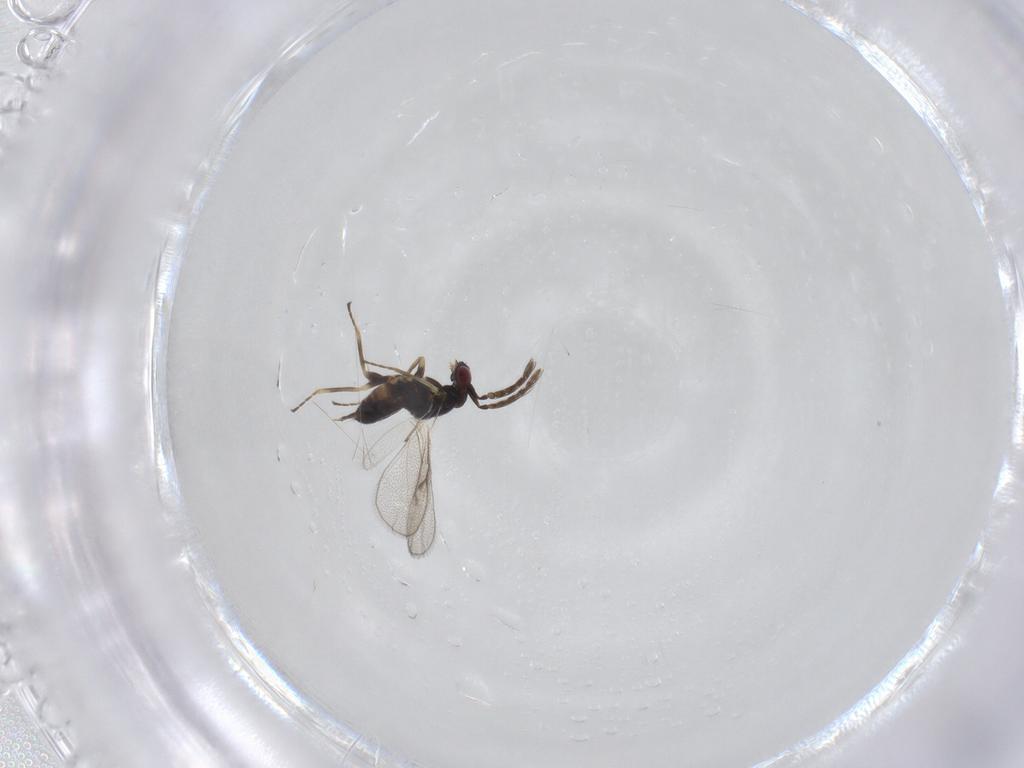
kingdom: Animalia
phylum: Arthropoda
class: Insecta
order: Hymenoptera
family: Eulophidae
